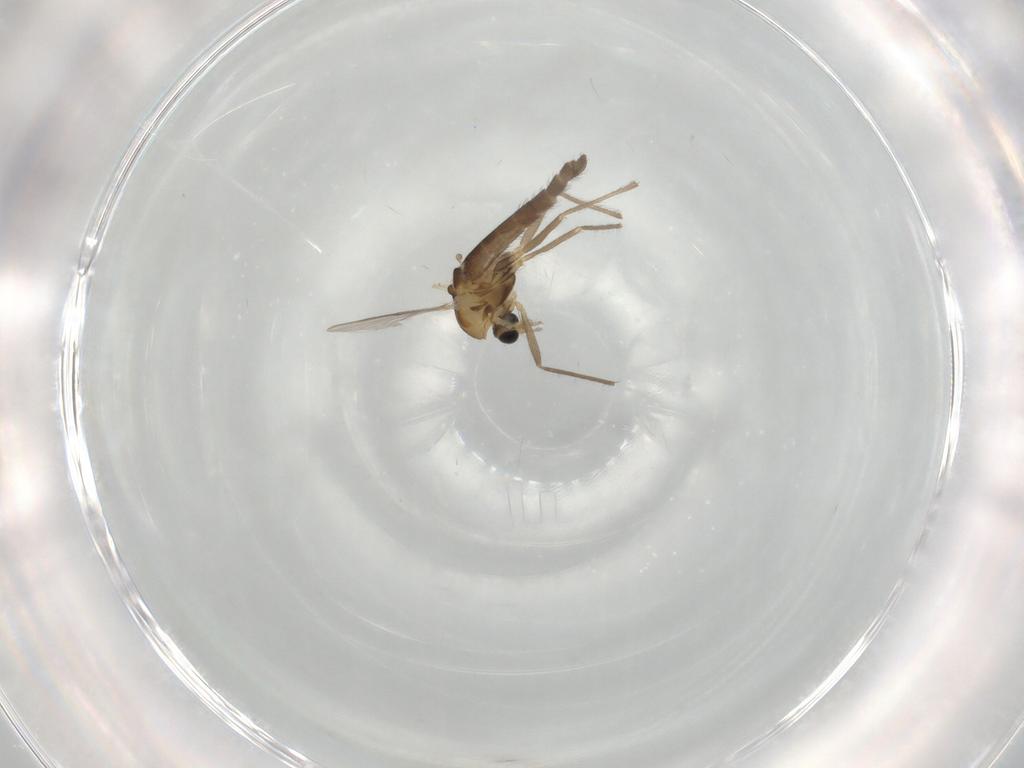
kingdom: Animalia
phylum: Arthropoda
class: Insecta
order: Diptera
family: Chironomidae
